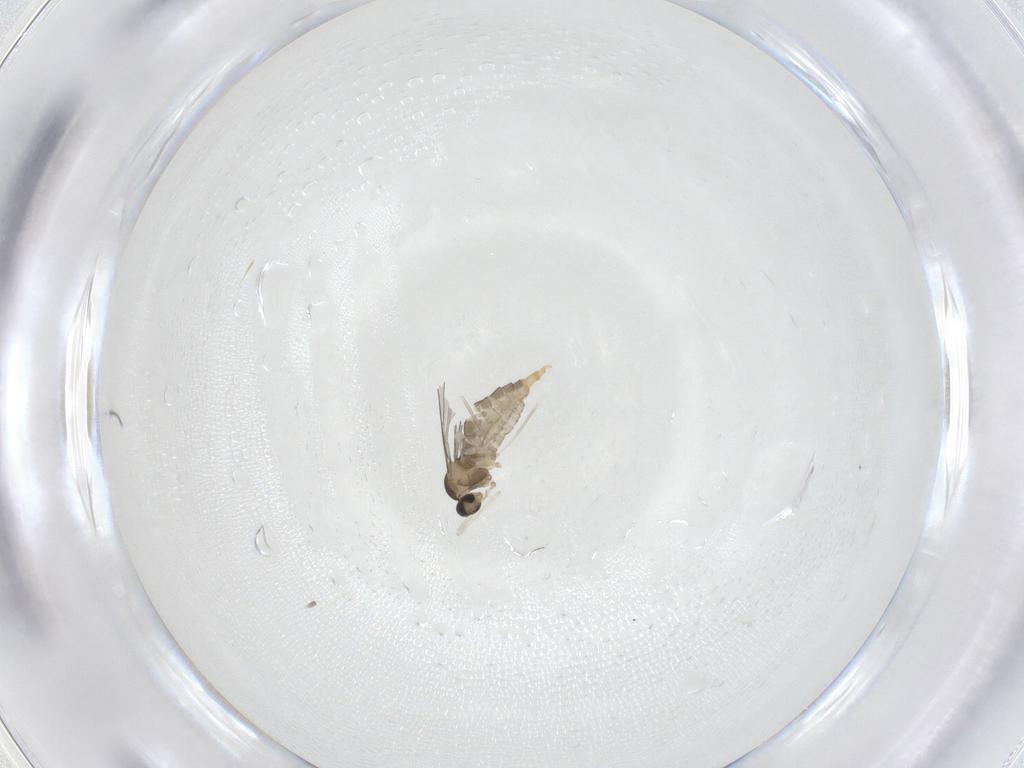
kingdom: Animalia
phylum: Arthropoda
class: Insecta
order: Diptera
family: Cecidomyiidae
